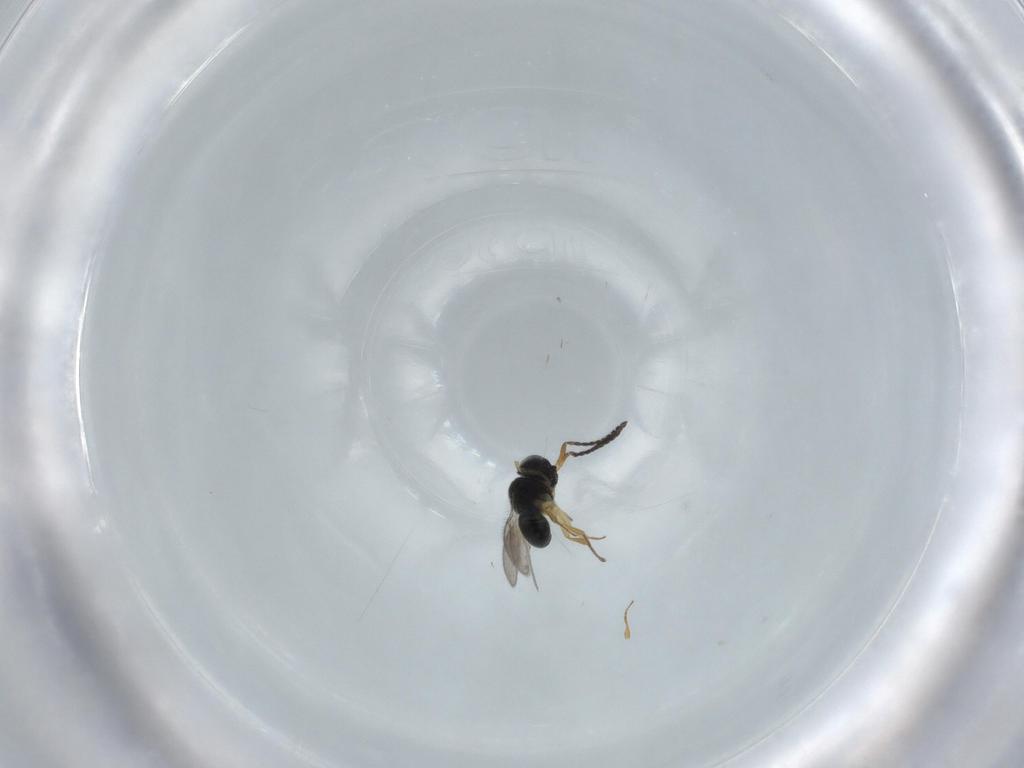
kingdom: Animalia
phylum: Arthropoda
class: Insecta
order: Hymenoptera
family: Scelionidae
